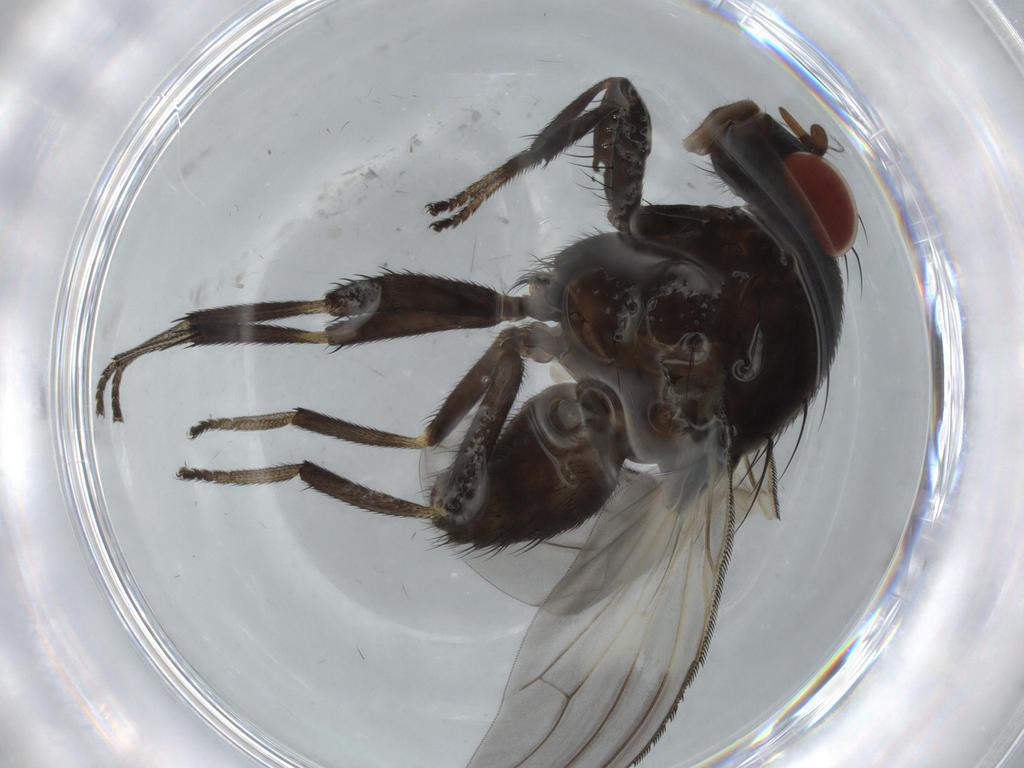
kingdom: Animalia
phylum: Arthropoda
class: Insecta
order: Diptera
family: Lauxaniidae
